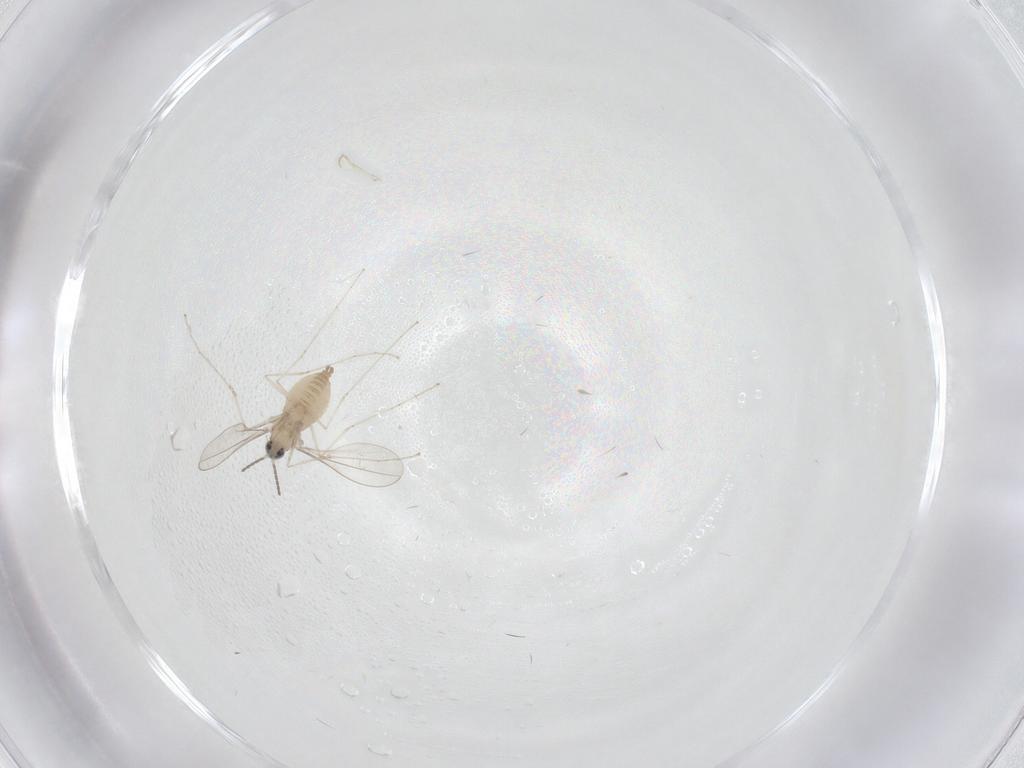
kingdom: Animalia
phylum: Arthropoda
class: Insecta
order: Diptera
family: Cecidomyiidae
